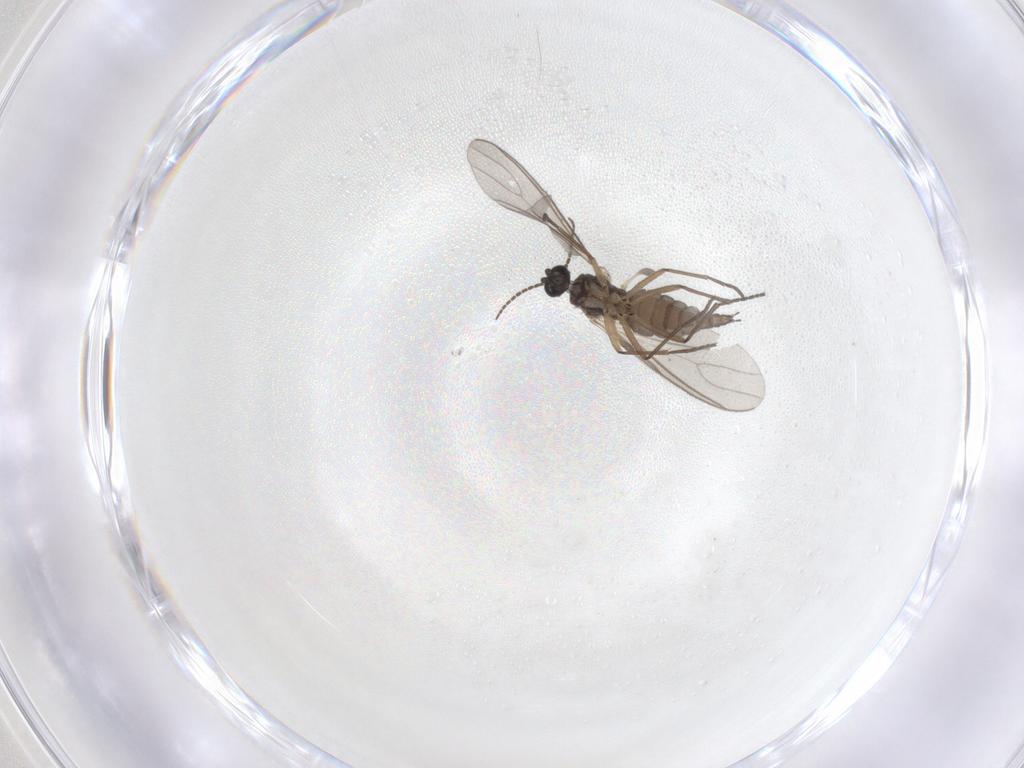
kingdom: Animalia
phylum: Arthropoda
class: Insecta
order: Diptera
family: Sciaridae
